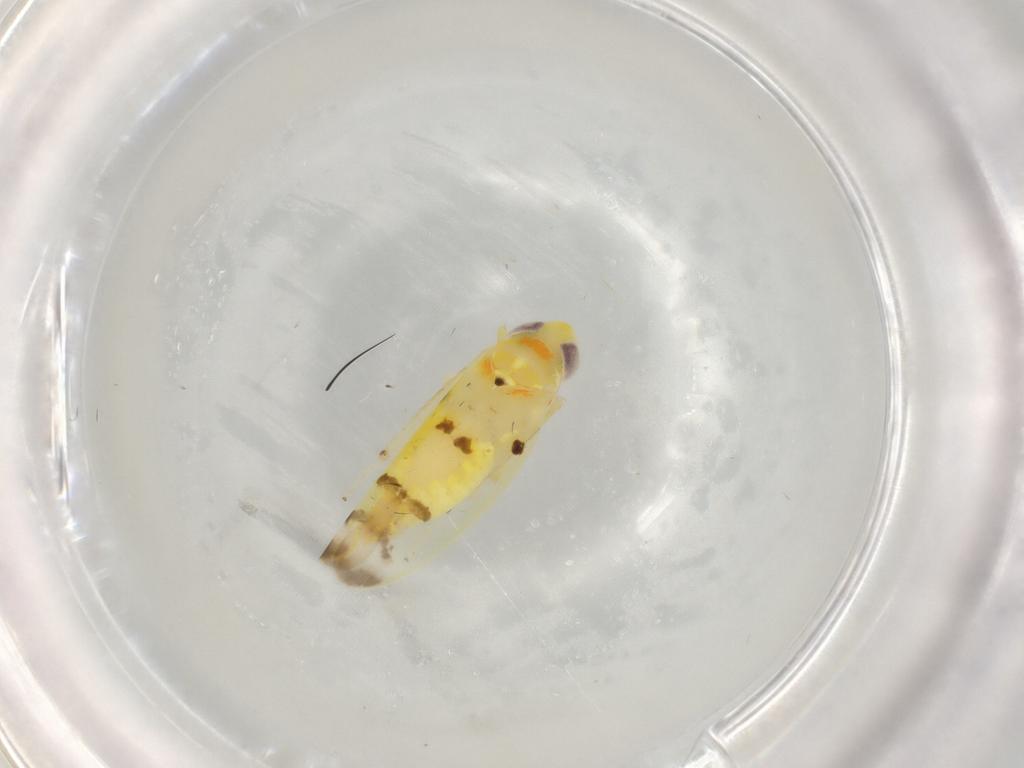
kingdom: Animalia
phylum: Arthropoda
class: Insecta
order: Hemiptera
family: Cicadellidae
